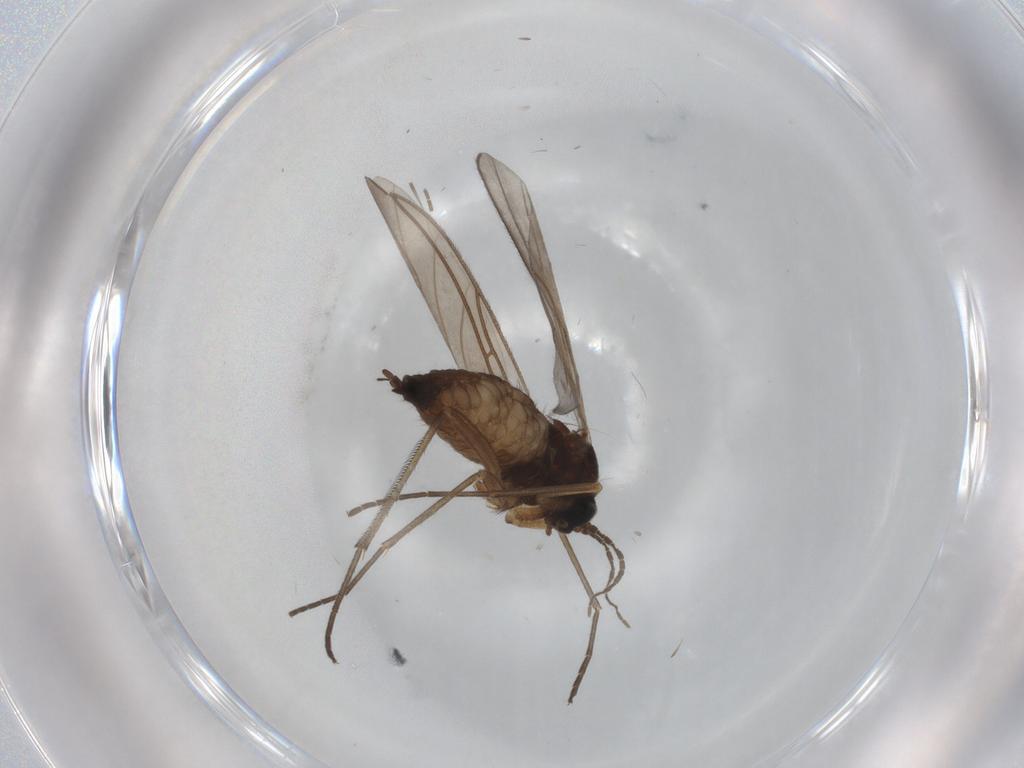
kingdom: Animalia
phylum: Arthropoda
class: Insecta
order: Diptera
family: Sciaridae
